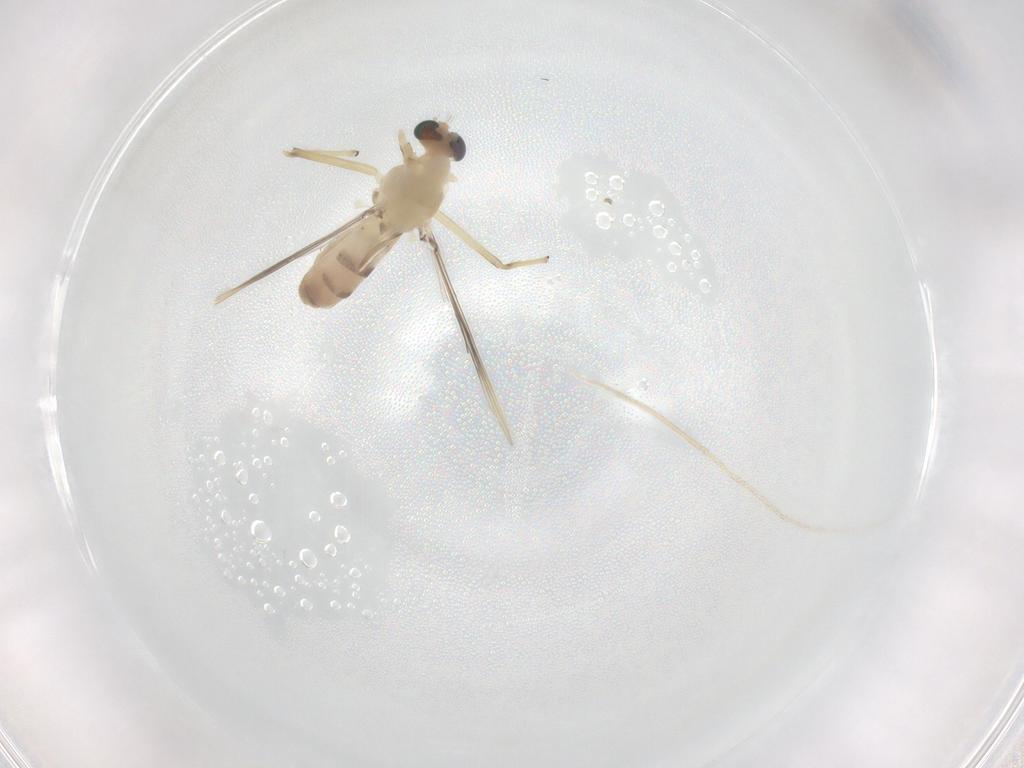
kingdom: Animalia
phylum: Arthropoda
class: Insecta
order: Diptera
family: Chironomidae
